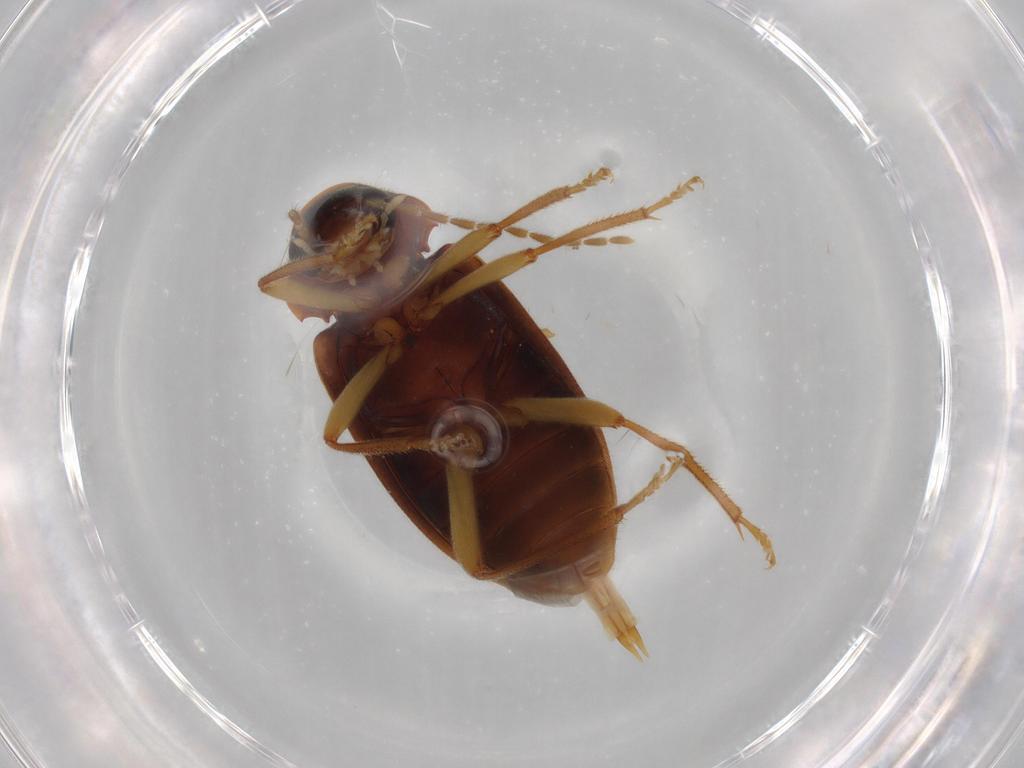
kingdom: Animalia
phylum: Arthropoda
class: Insecta
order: Coleoptera
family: Ptilodactylidae
